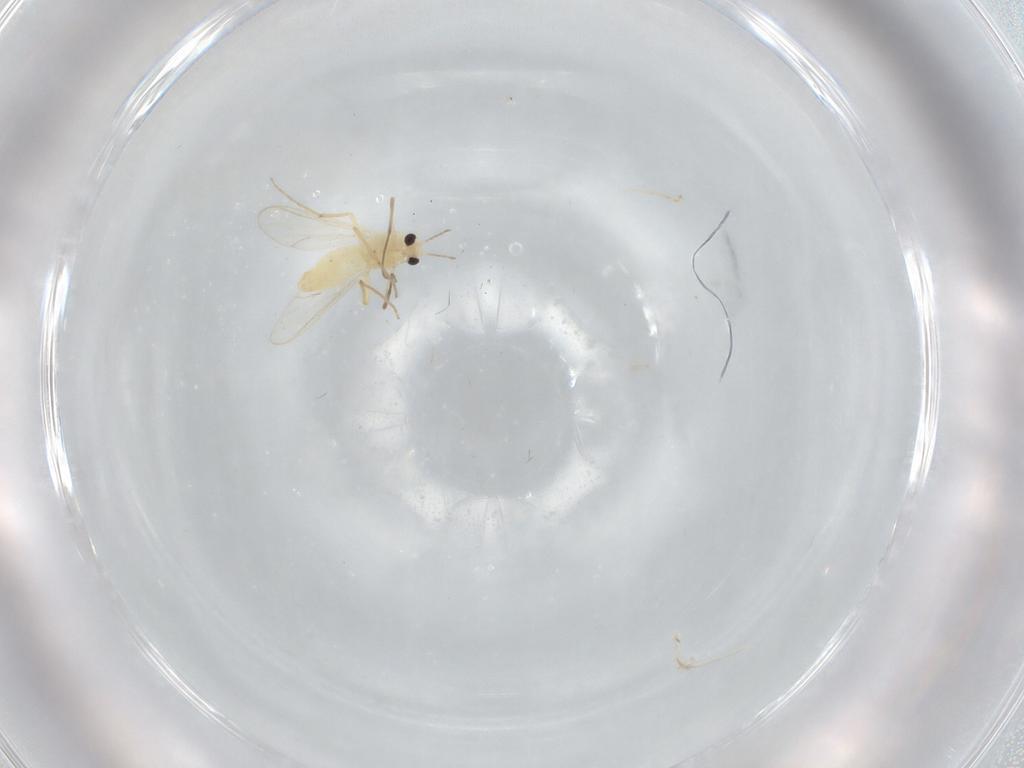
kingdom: Animalia
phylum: Arthropoda
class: Insecta
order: Diptera
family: Chironomidae
